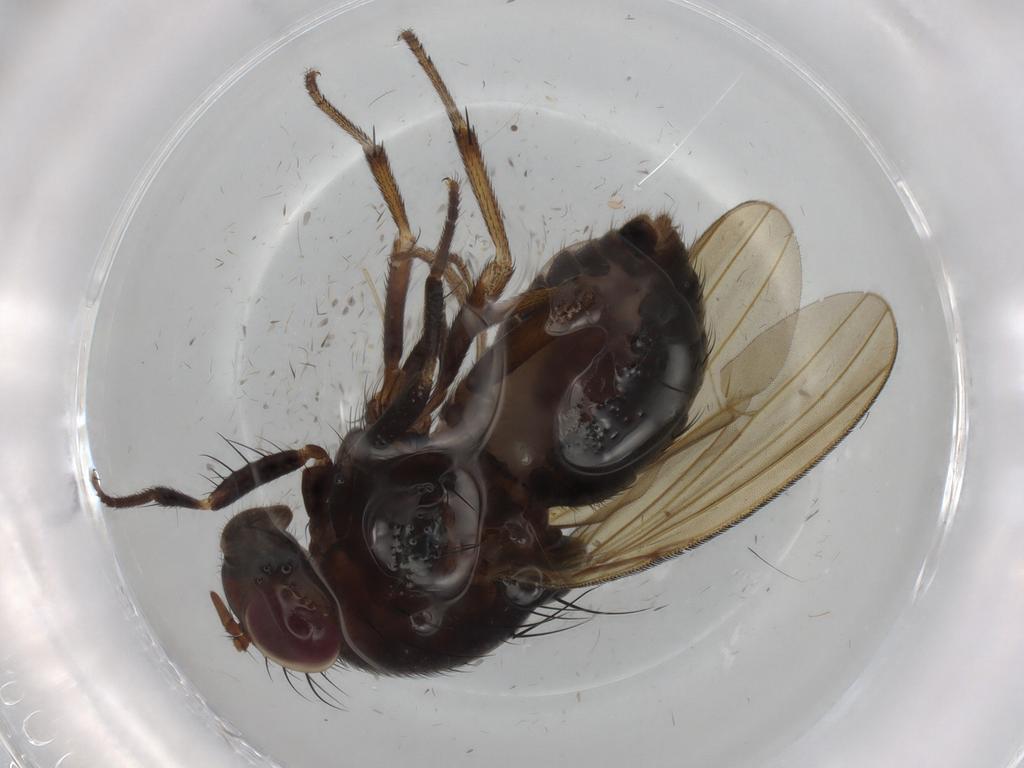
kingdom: Animalia
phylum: Arthropoda
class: Insecta
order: Diptera
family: Cecidomyiidae
